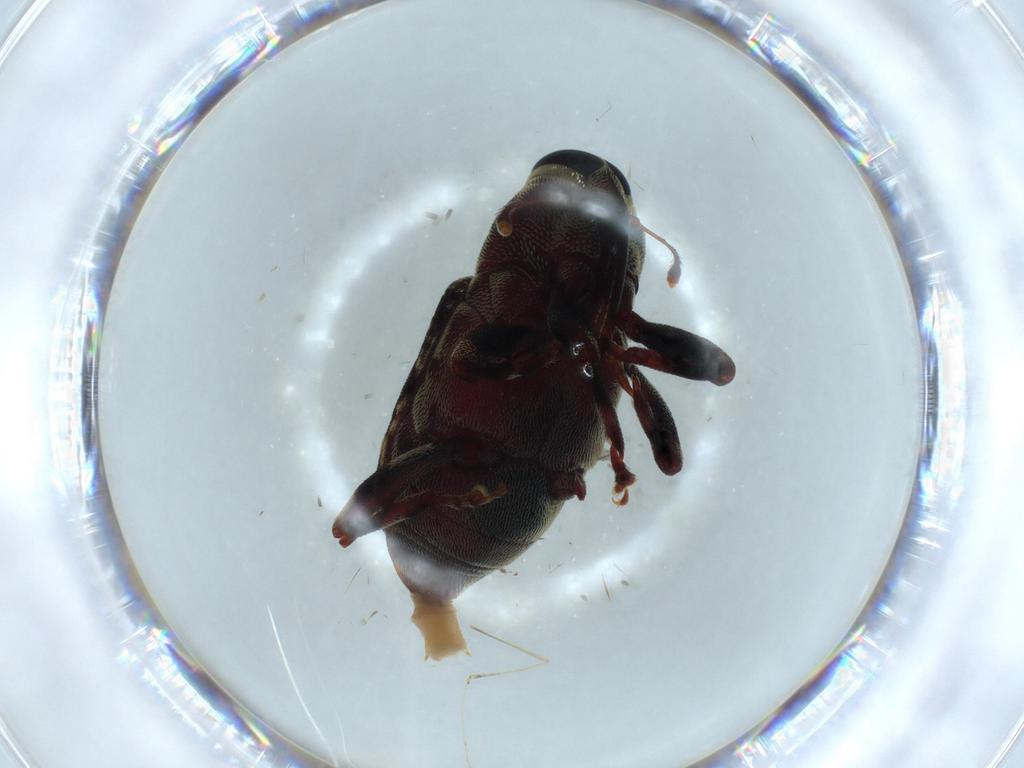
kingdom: Animalia
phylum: Arthropoda
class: Insecta
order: Coleoptera
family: Curculionidae
